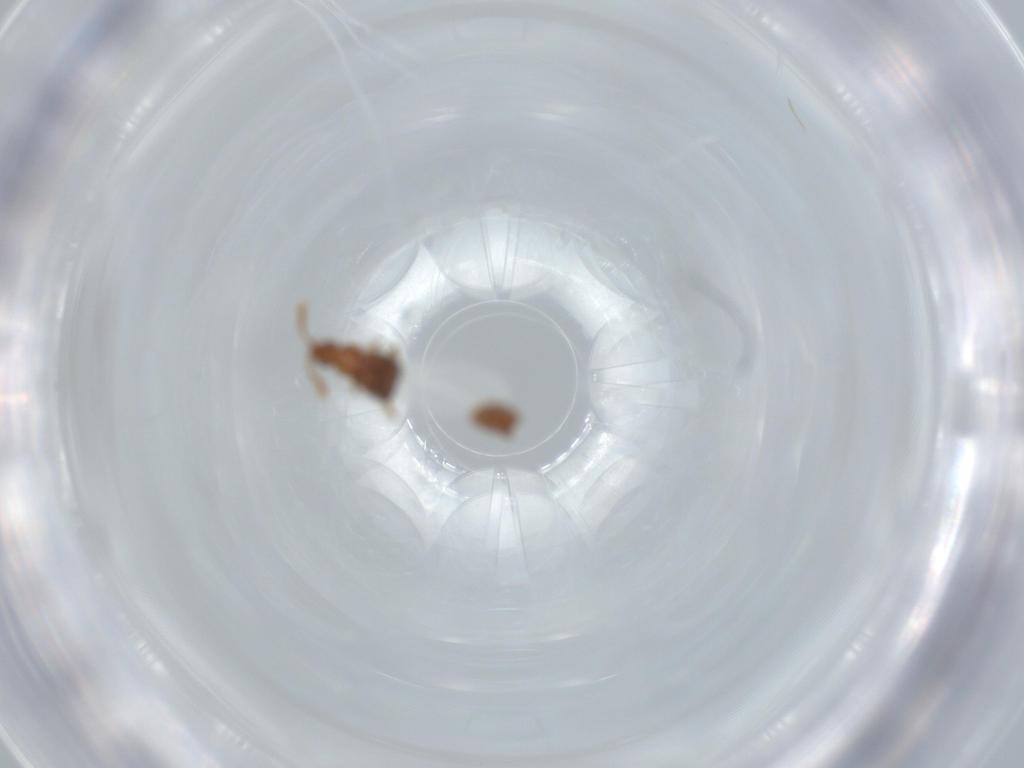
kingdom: Animalia
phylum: Arthropoda
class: Insecta
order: Coleoptera
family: Staphylinidae
